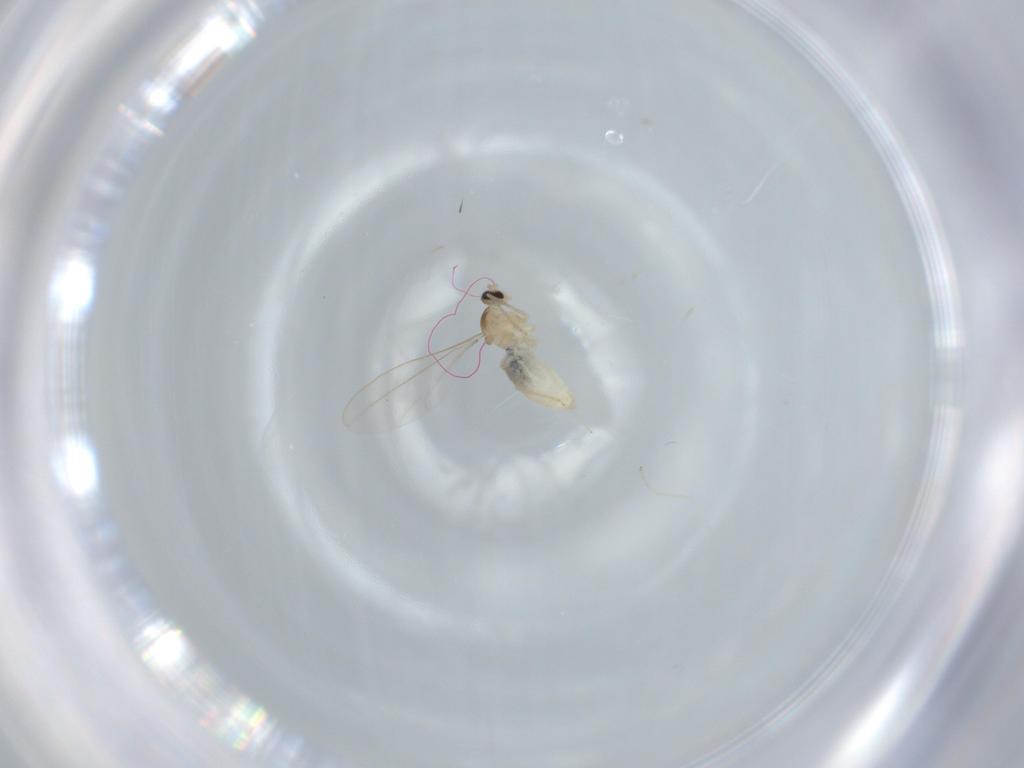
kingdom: Animalia
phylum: Arthropoda
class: Insecta
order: Diptera
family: Cecidomyiidae
